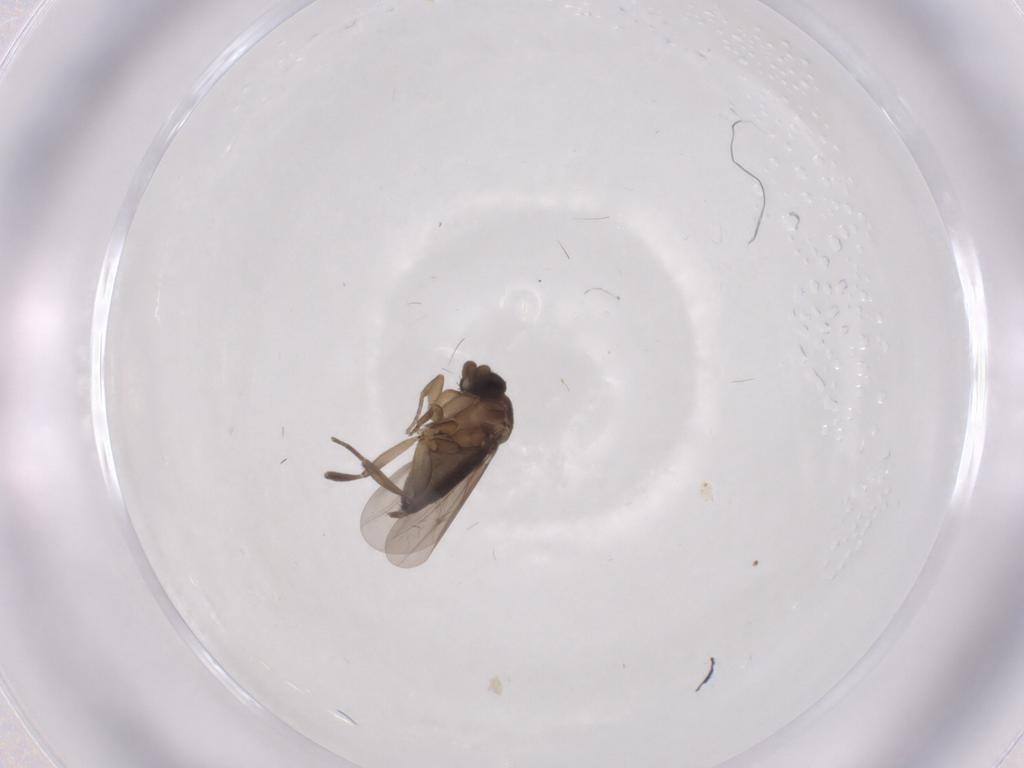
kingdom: Animalia
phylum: Arthropoda
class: Insecta
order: Diptera
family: Phoridae
